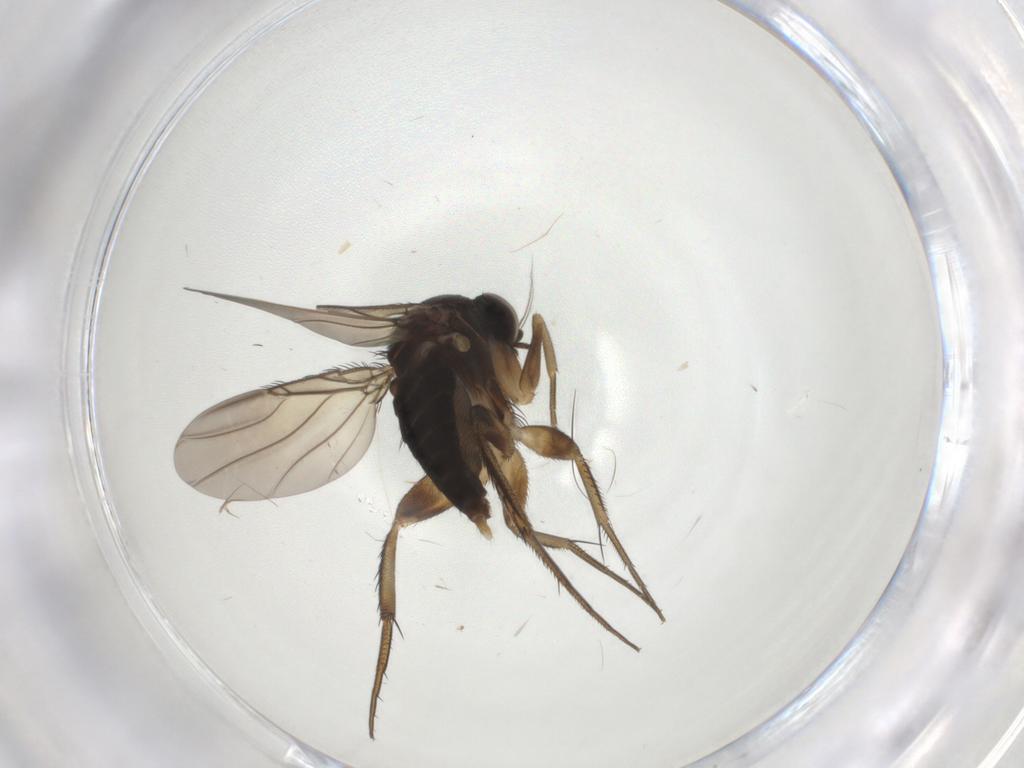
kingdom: Animalia
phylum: Arthropoda
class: Insecta
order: Diptera
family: Phoridae
